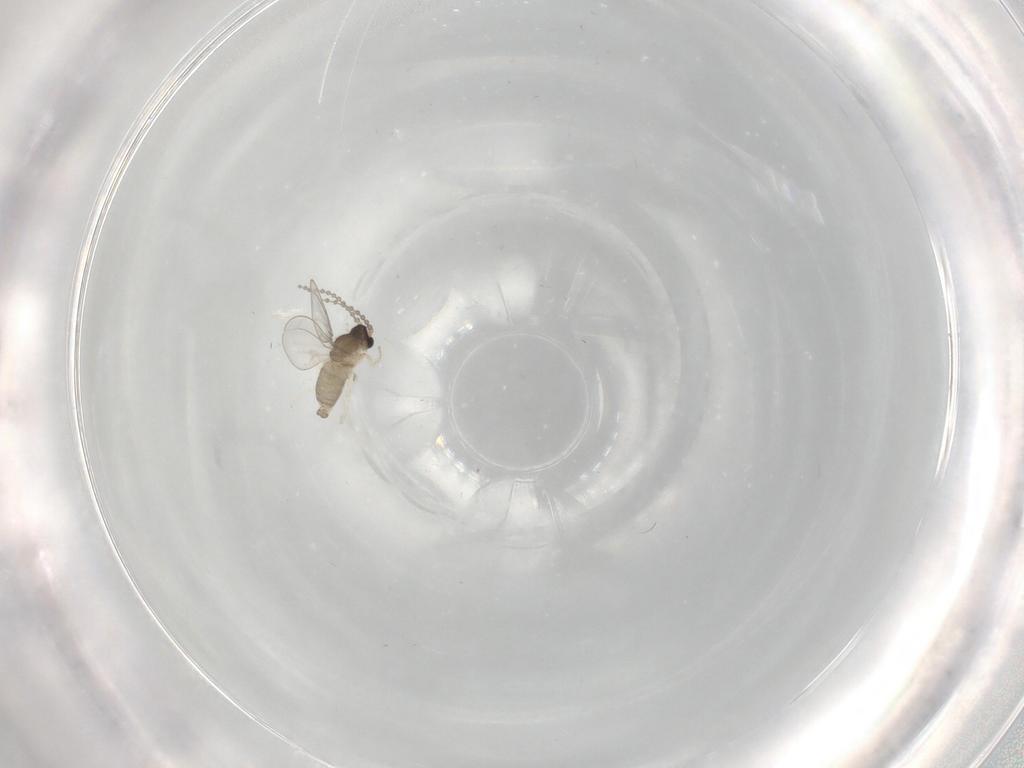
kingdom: Animalia
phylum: Arthropoda
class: Insecta
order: Diptera
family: Cecidomyiidae
